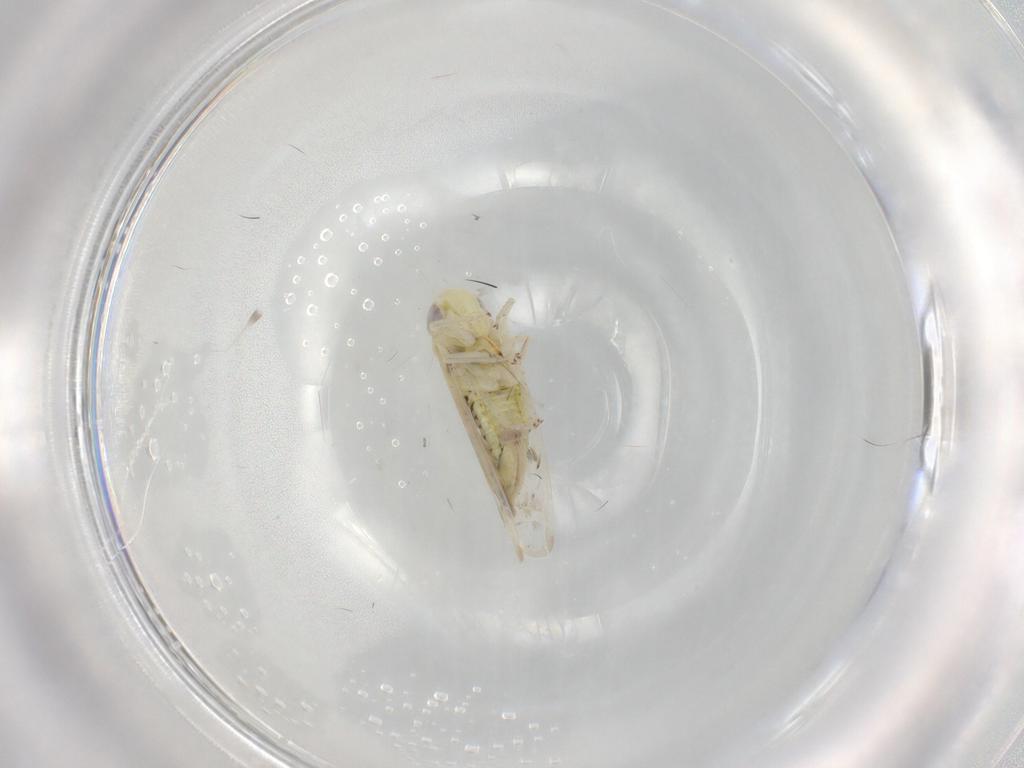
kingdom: Animalia
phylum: Arthropoda
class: Insecta
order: Hemiptera
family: Cicadellidae
